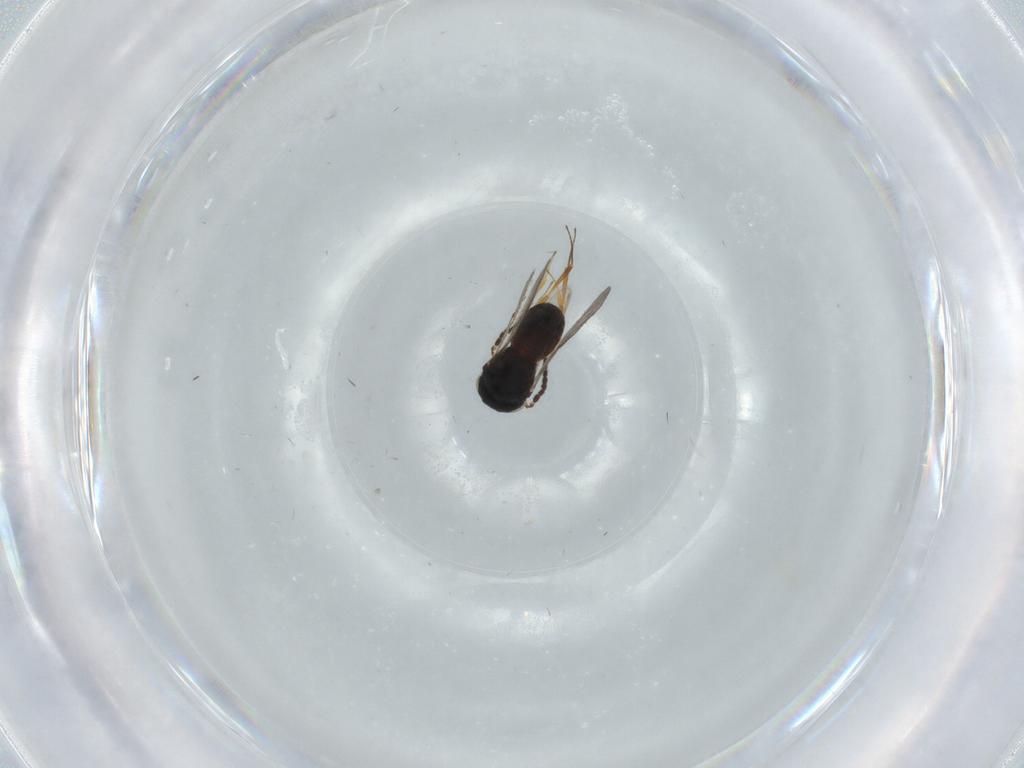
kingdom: Animalia
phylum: Arthropoda
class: Insecta
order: Hymenoptera
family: Scelionidae
